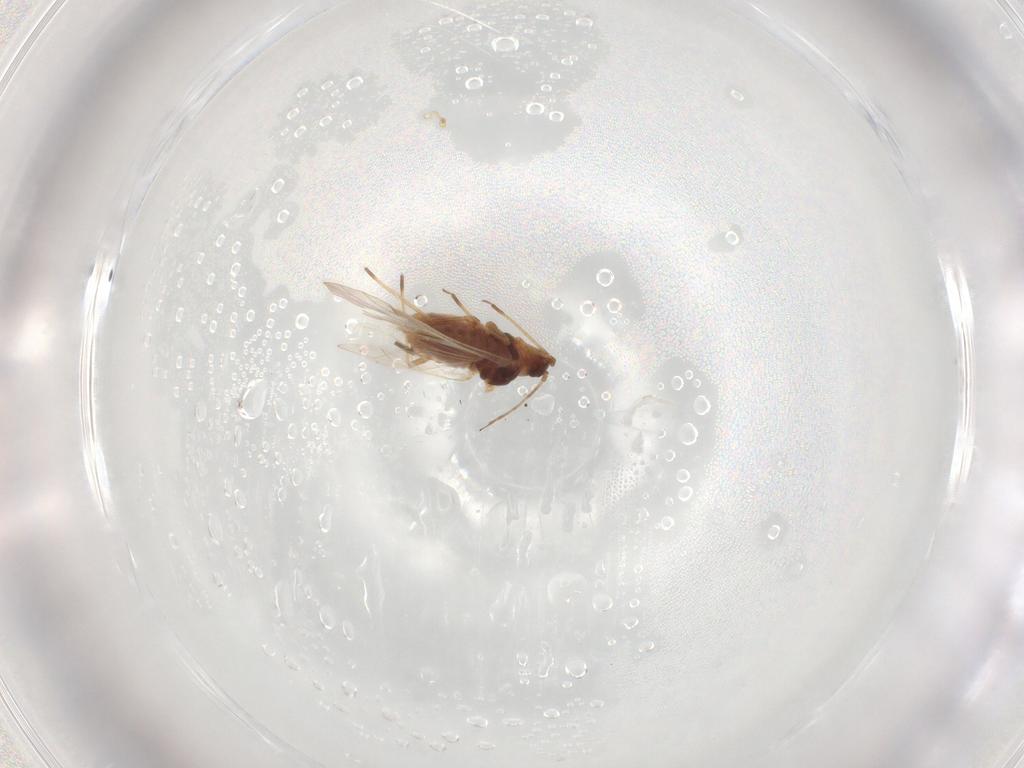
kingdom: Animalia
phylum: Arthropoda
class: Insecta
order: Hemiptera
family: Aphididae
